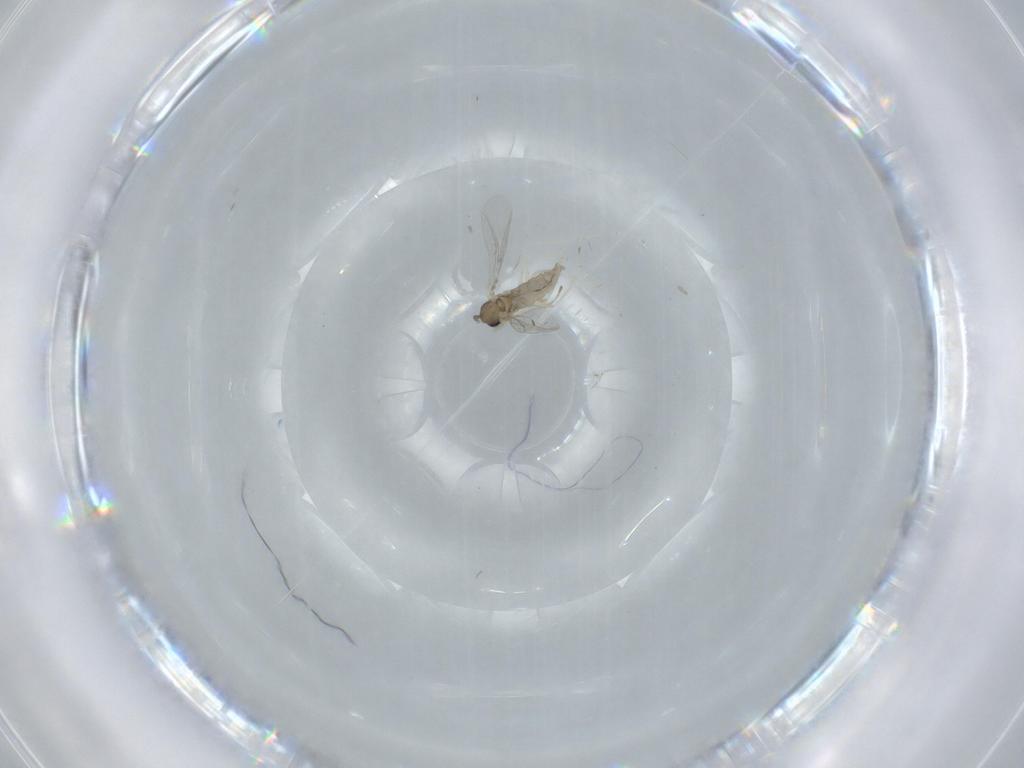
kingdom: Animalia
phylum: Arthropoda
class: Insecta
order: Diptera
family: Cecidomyiidae
